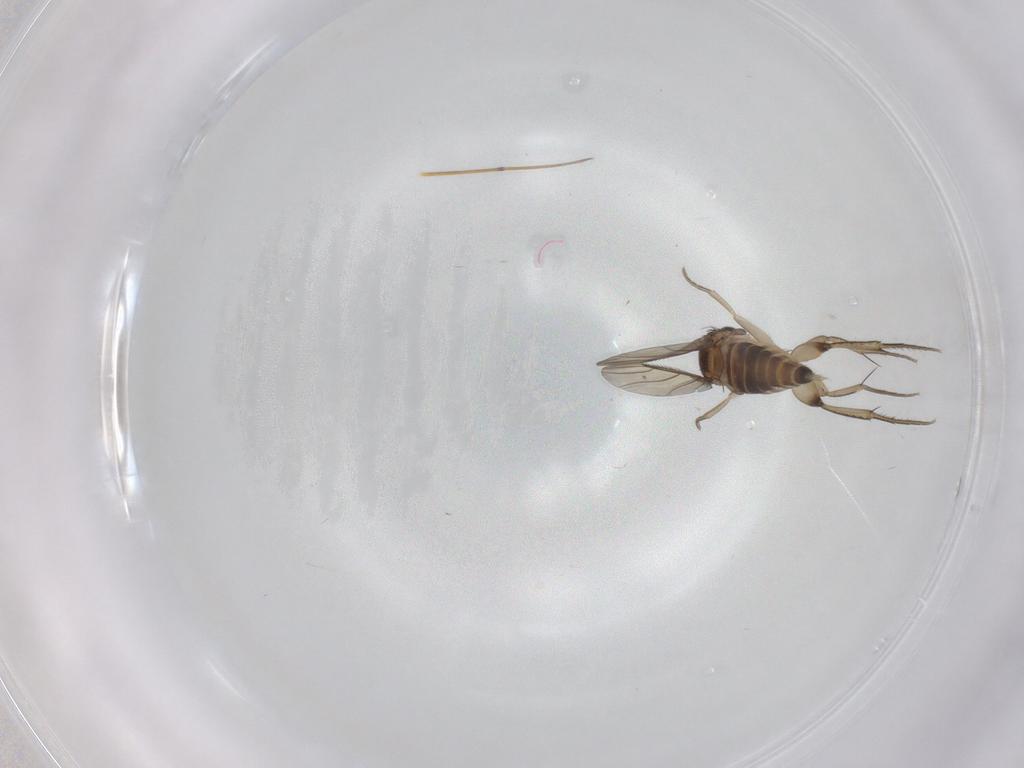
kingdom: Animalia
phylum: Arthropoda
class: Insecta
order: Diptera
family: Phoridae
